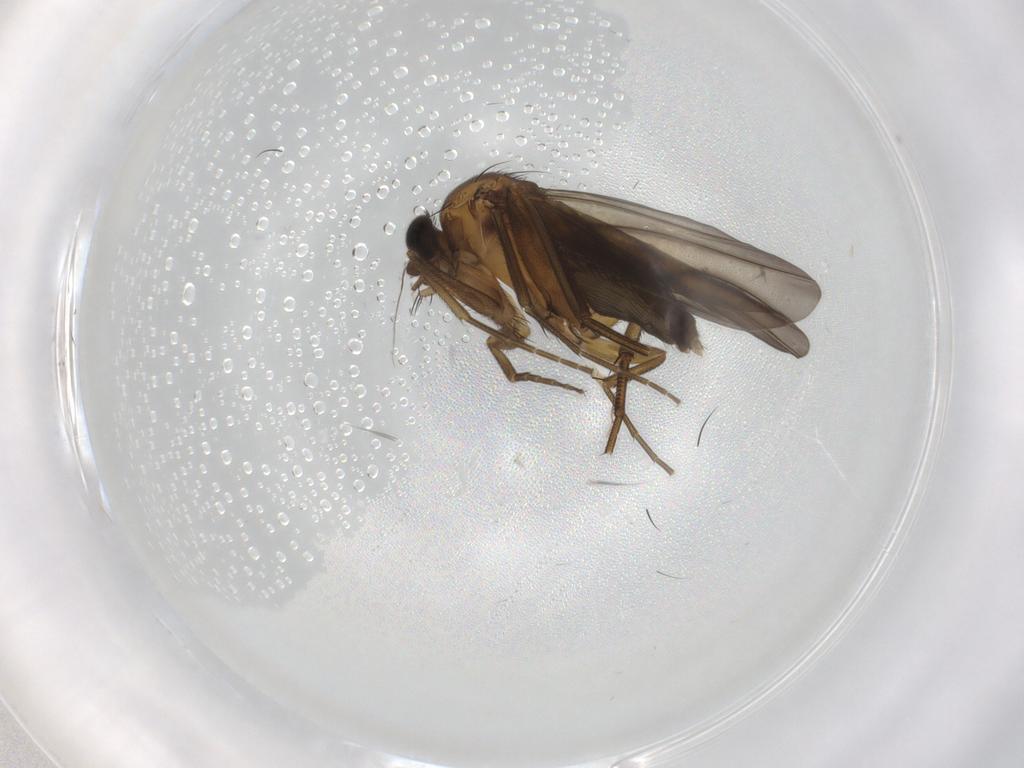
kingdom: Animalia
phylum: Arthropoda
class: Insecta
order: Diptera
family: Phoridae
